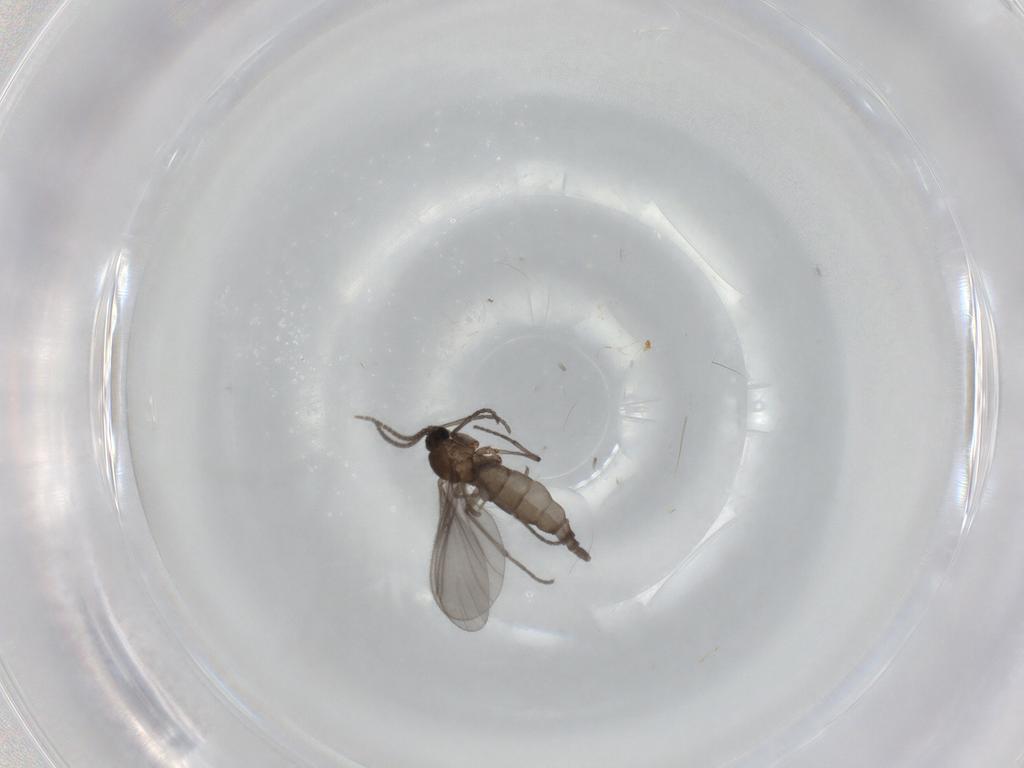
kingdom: Animalia
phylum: Arthropoda
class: Insecta
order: Diptera
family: Sciaridae
